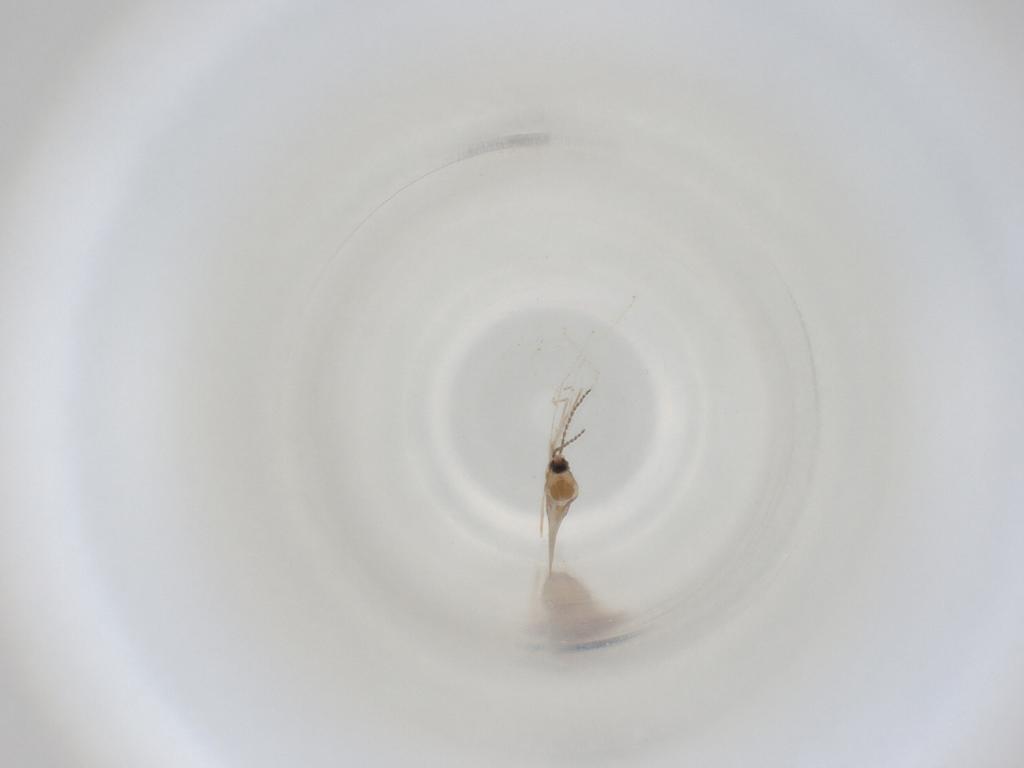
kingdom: Animalia
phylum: Arthropoda
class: Insecta
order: Diptera
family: Cecidomyiidae
